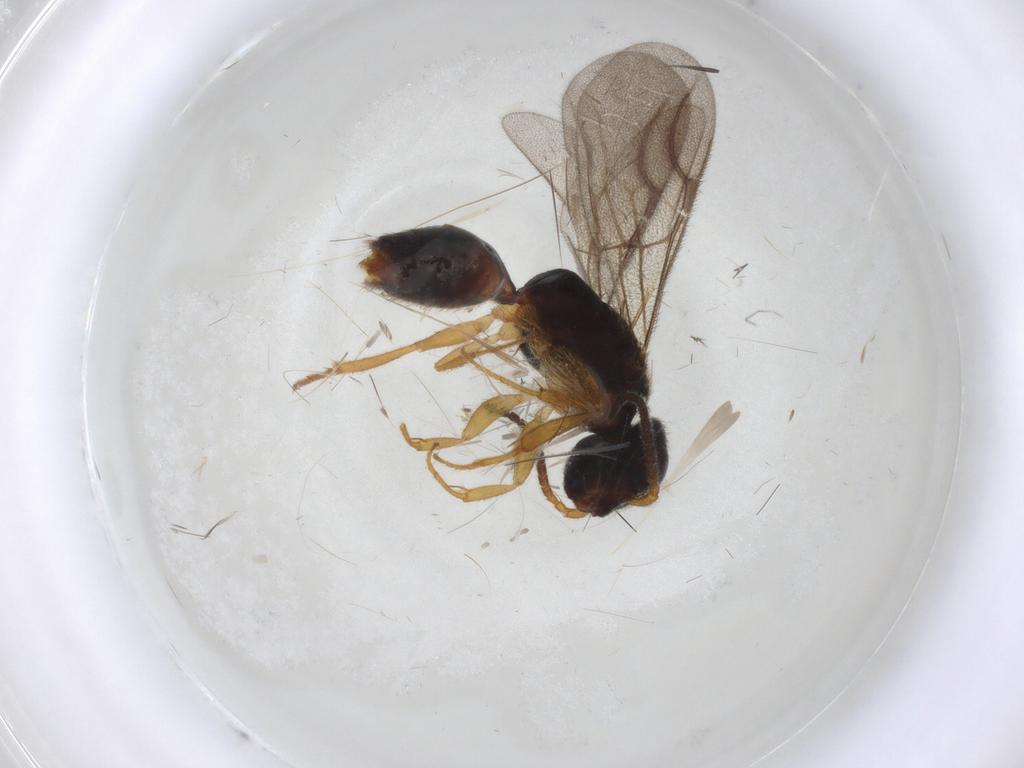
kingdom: Animalia
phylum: Arthropoda
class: Insecta
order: Hymenoptera
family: Bethylidae
